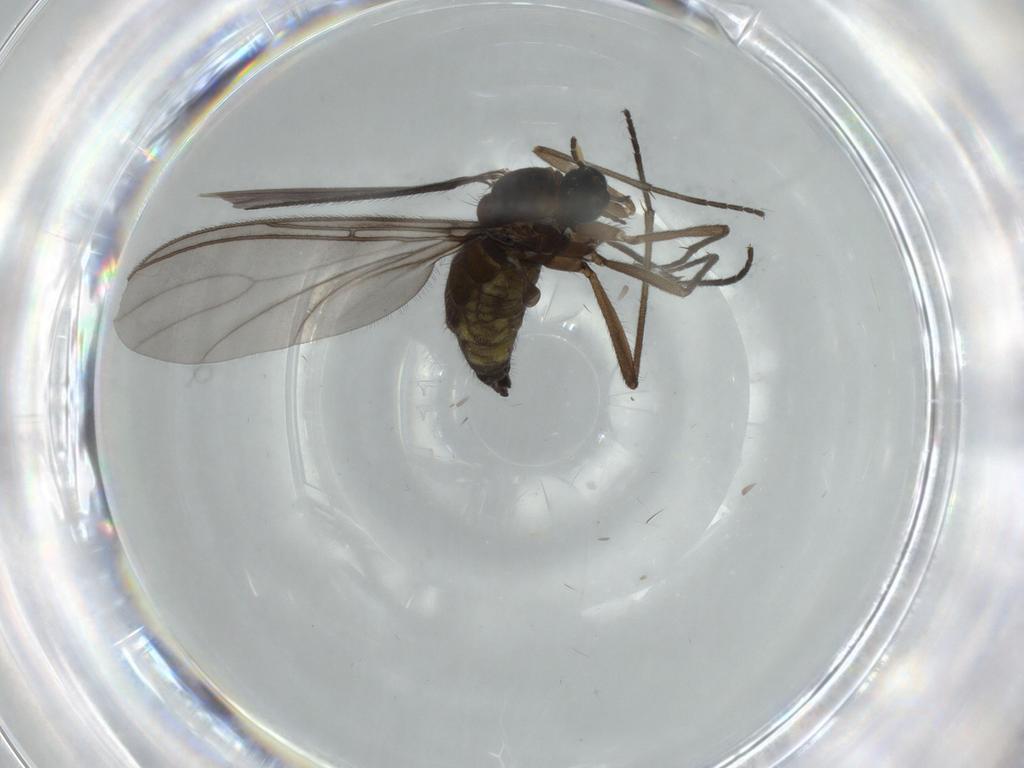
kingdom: Animalia
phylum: Arthropoda
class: Insecta
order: Diptera
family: Sciaridae
